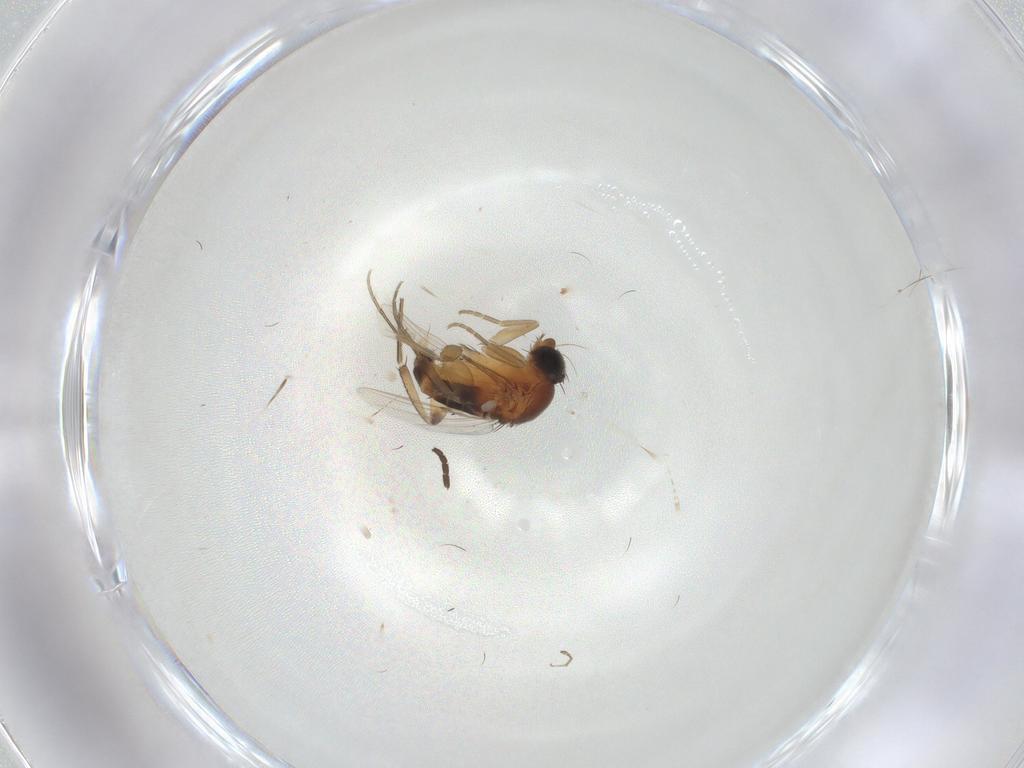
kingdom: Animalia
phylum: Arthropoda
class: Insecta
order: Diptera
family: Phoridae
